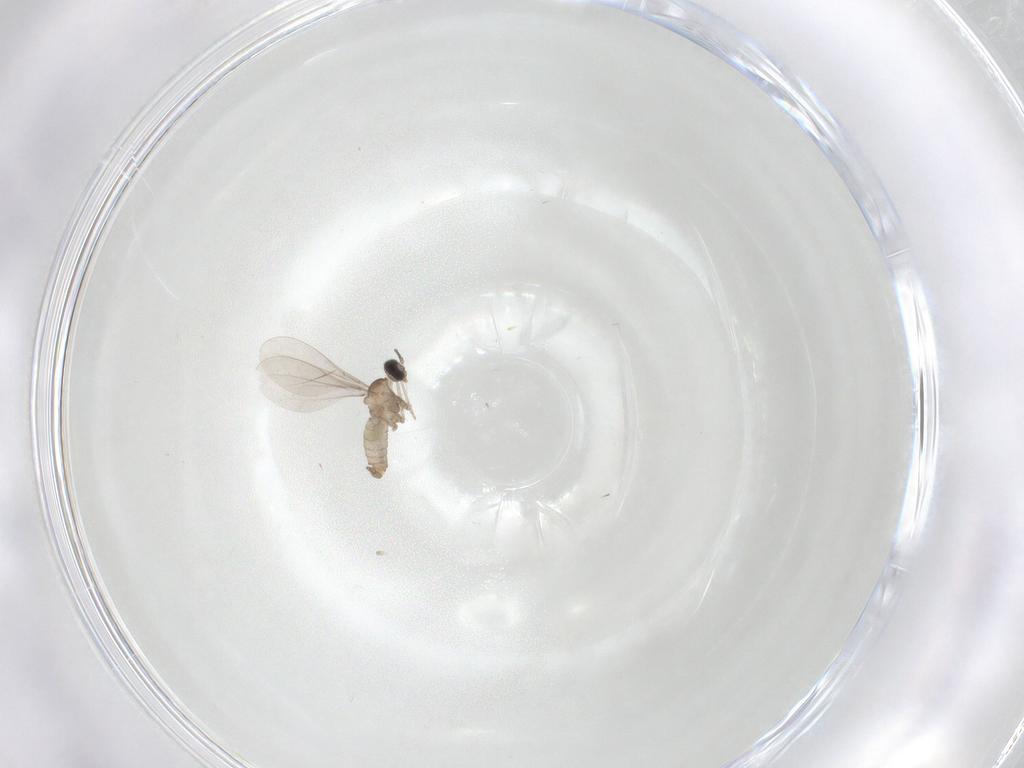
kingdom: Animalia
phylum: Arthropoda
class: Insecta
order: Diptera
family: Cecidomyiidae
